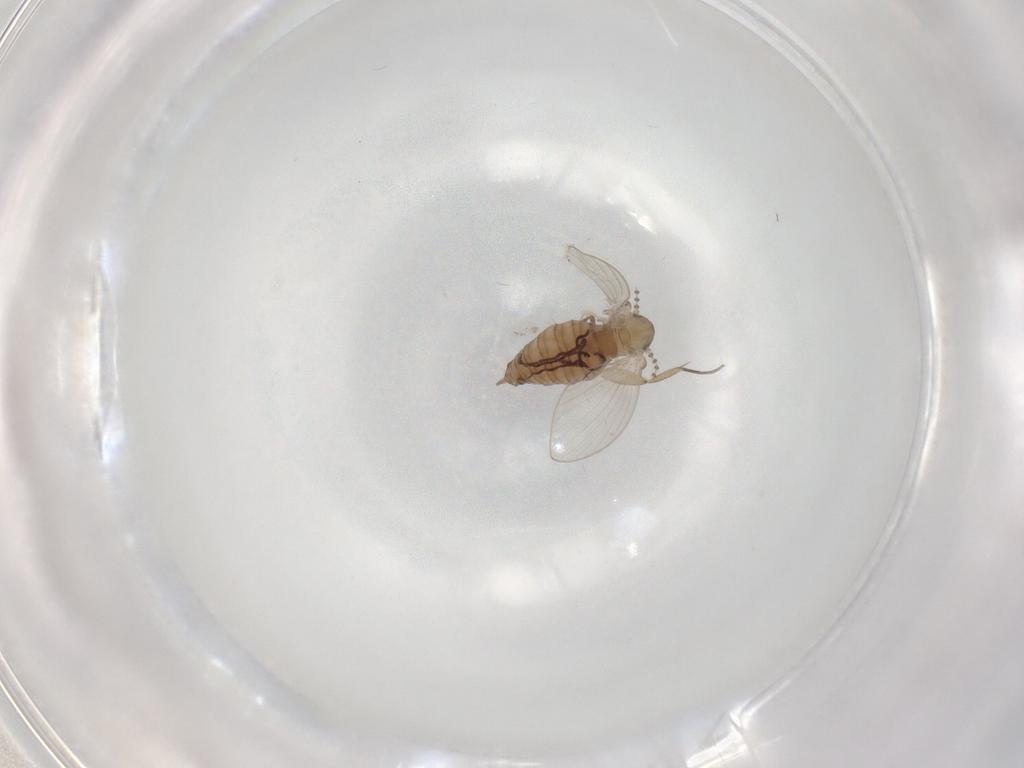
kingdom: Animalia
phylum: Arthropoda
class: Insecta
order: Diptera
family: Psychodidae
